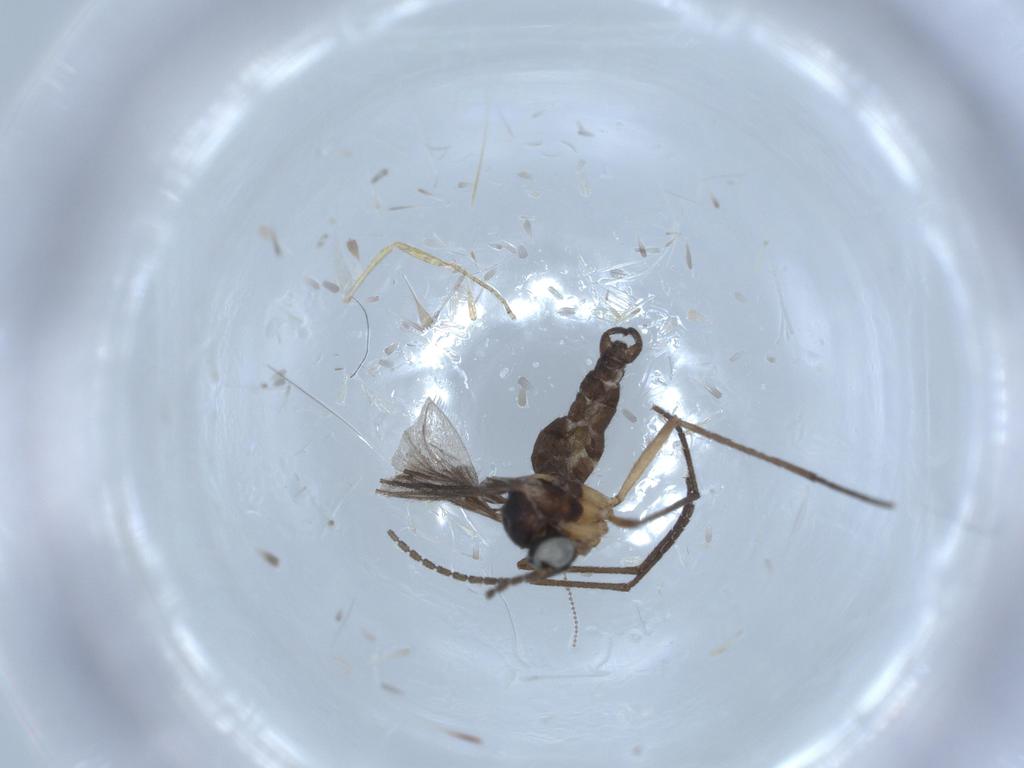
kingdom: Animalia
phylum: Arthropoda
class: Insecta
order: Diptera
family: Ceratopogonidae
